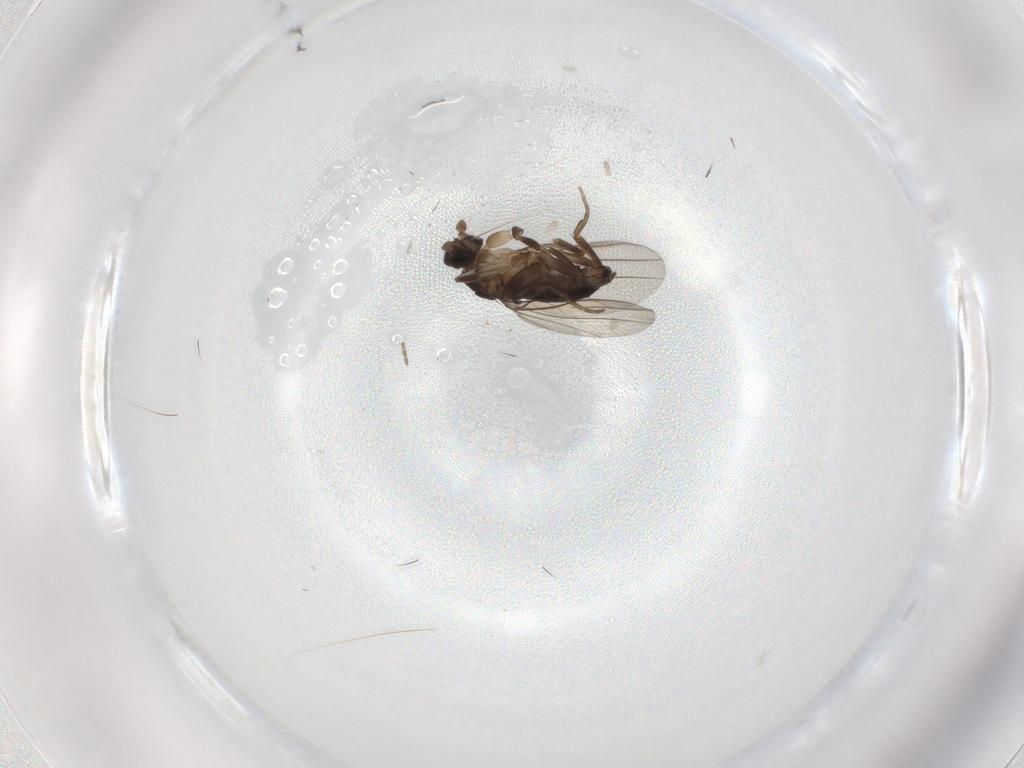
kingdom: Animalia
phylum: Arthropoda
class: Insecta
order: Diptera
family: Phoridae
